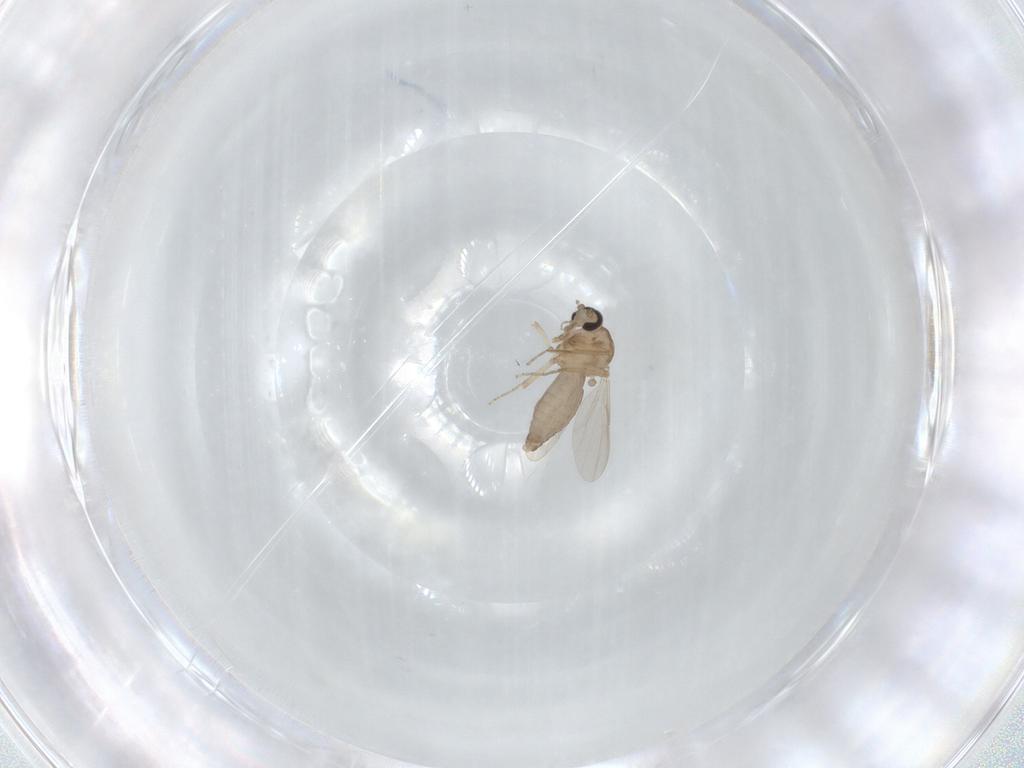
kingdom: Animalia
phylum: Arthropoda
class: Insecta
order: Diptera
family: Ceratopogonidae
